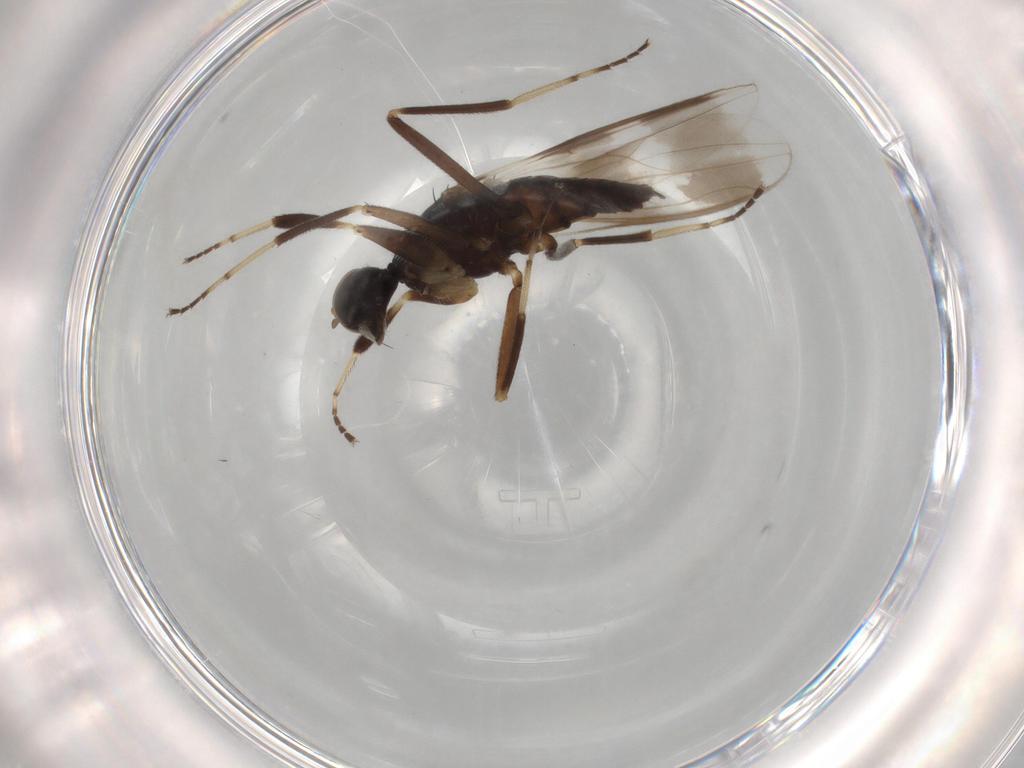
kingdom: Animalia
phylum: Arthropoda
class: Insecta
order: Diptera
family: Hybotidae
